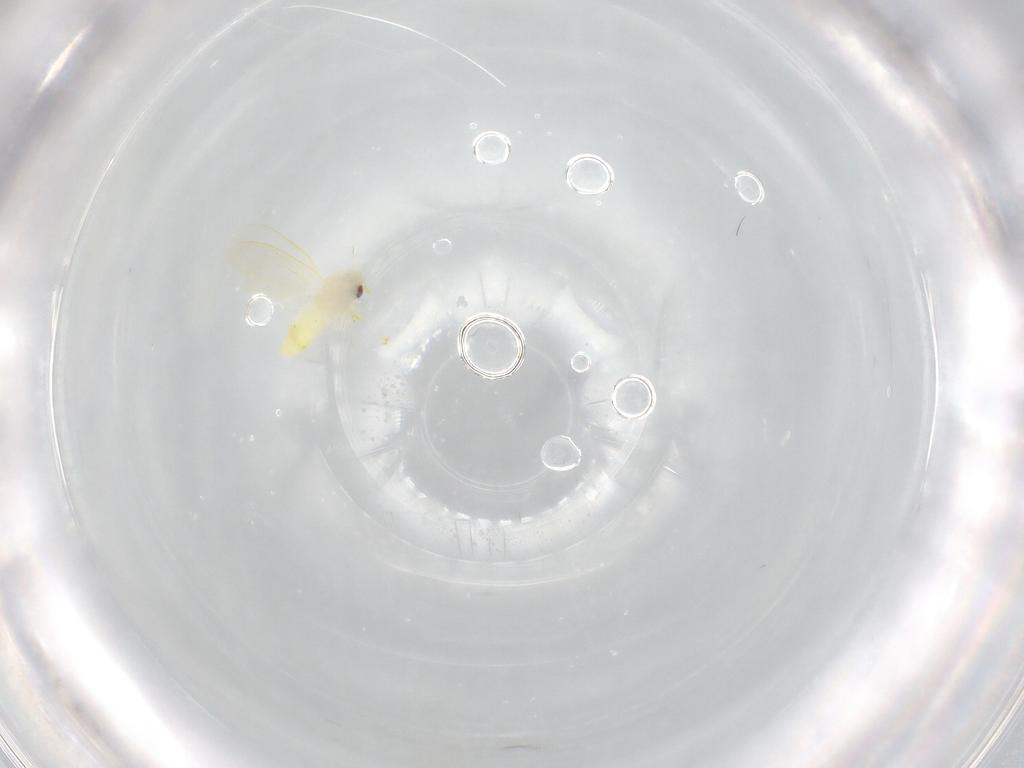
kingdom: Animalia
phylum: Arthropoda
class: Insecta
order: Hemiptera
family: Aleyrodidae
